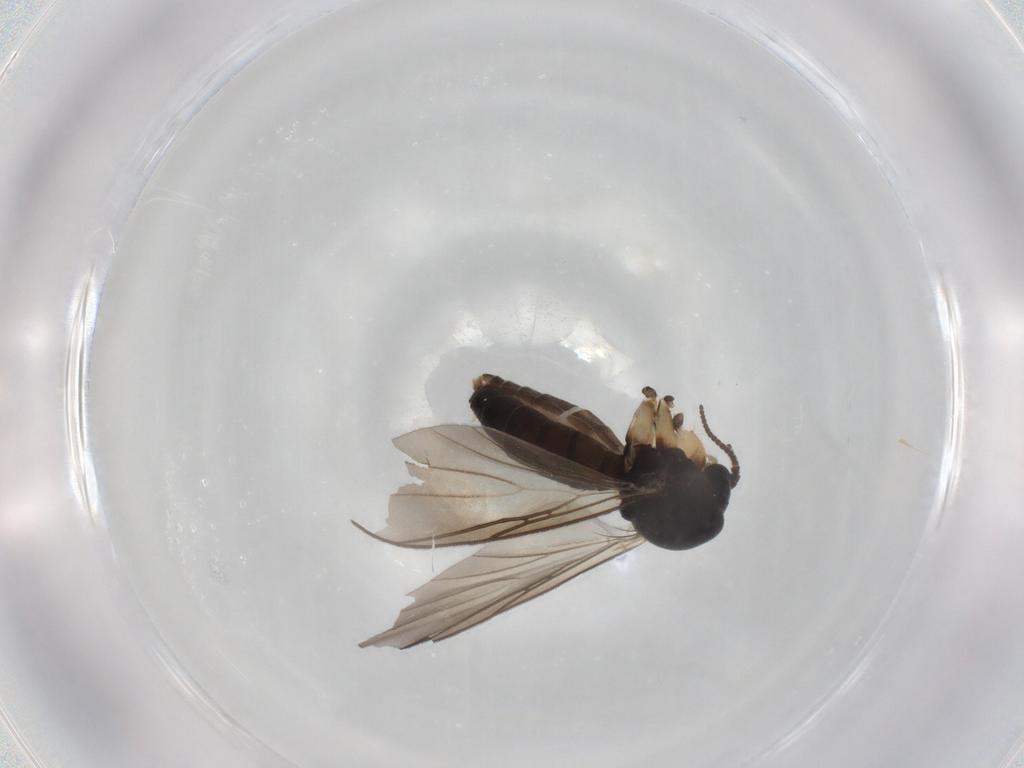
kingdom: Animalia
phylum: Arthropoda
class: Insecta
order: Diptera
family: Mycetophilidae
